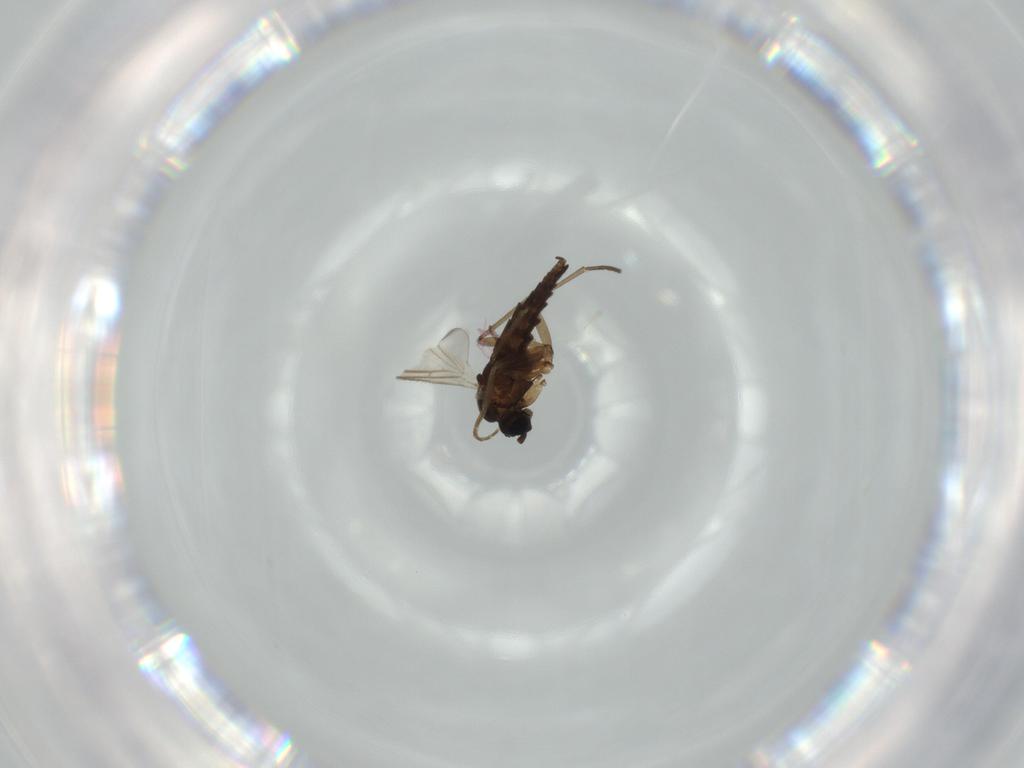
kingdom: Animalia
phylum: Arthropoda
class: Insecta
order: Diptera
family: Sciaridae
